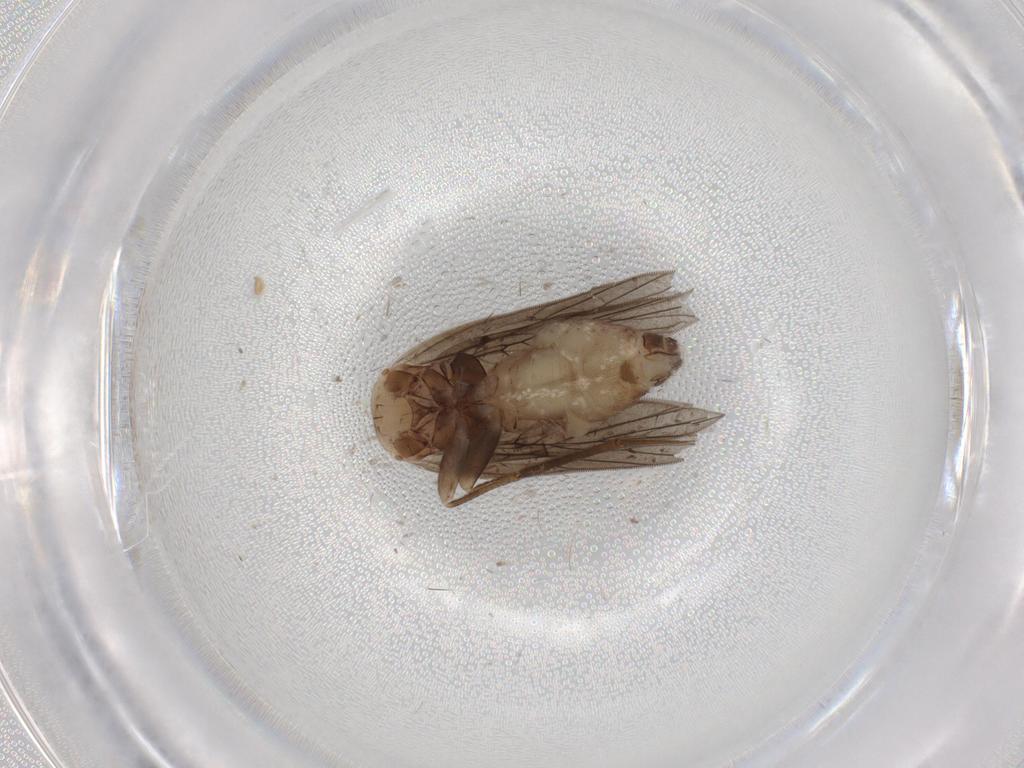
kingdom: Animalia
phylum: Arthropoda
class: Insecta
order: Psocodea
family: Lepidopsocidae
